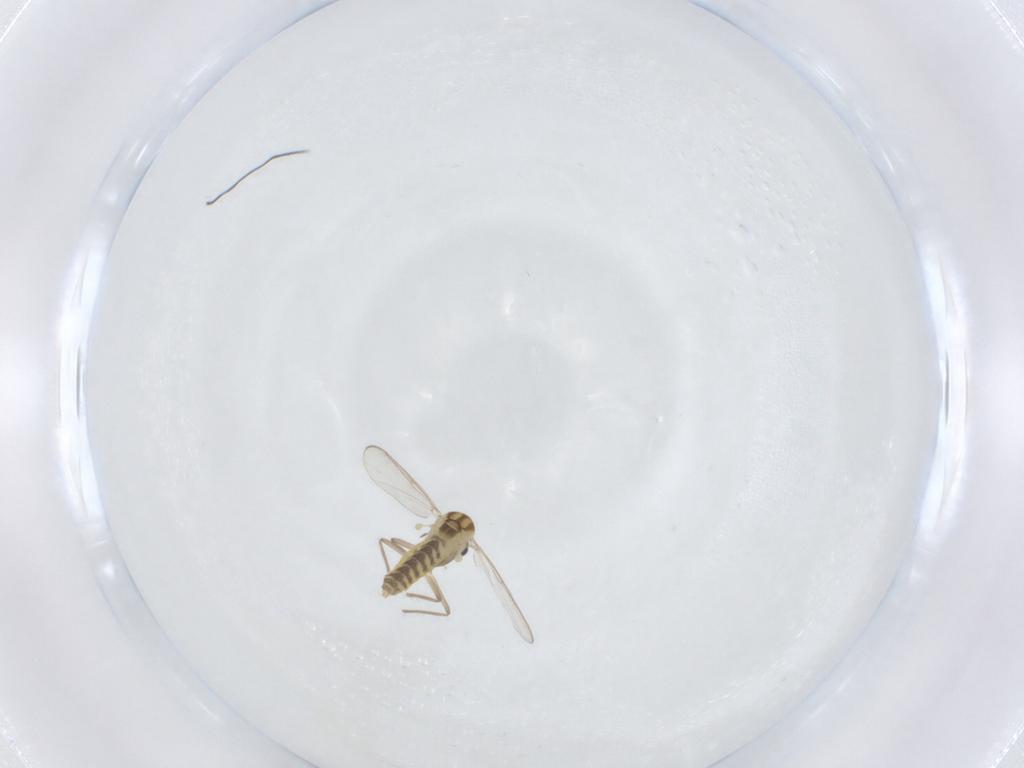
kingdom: Animalia
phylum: Arthropoda
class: Insecta
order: Diptera
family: Chironomidae
